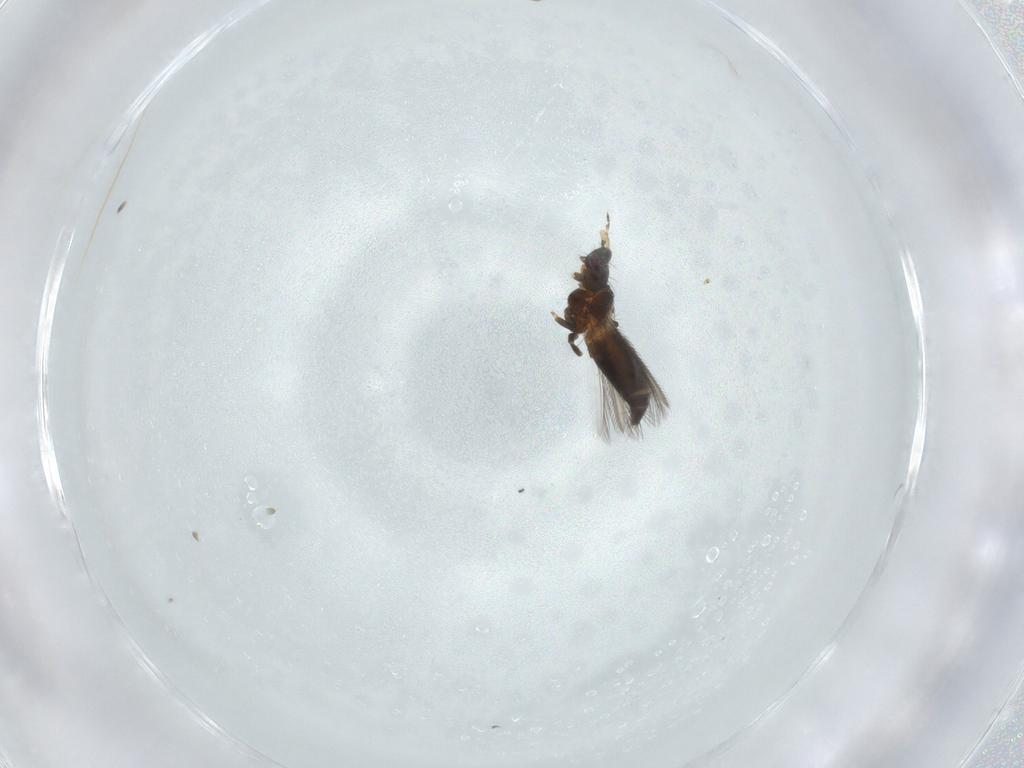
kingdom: Animalia
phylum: Arthropoda
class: Insecta
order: Thysanoptera
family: Thripidae
